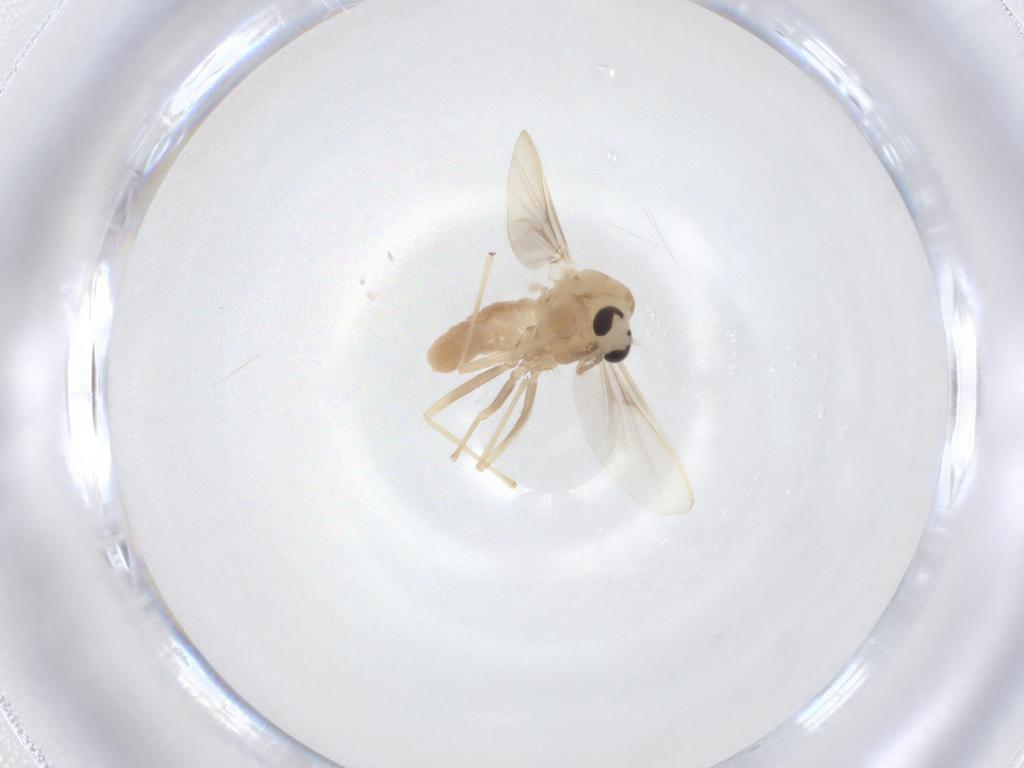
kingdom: Animalia
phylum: Arthropoda
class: Insecta
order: Diptera
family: Chironomidae
